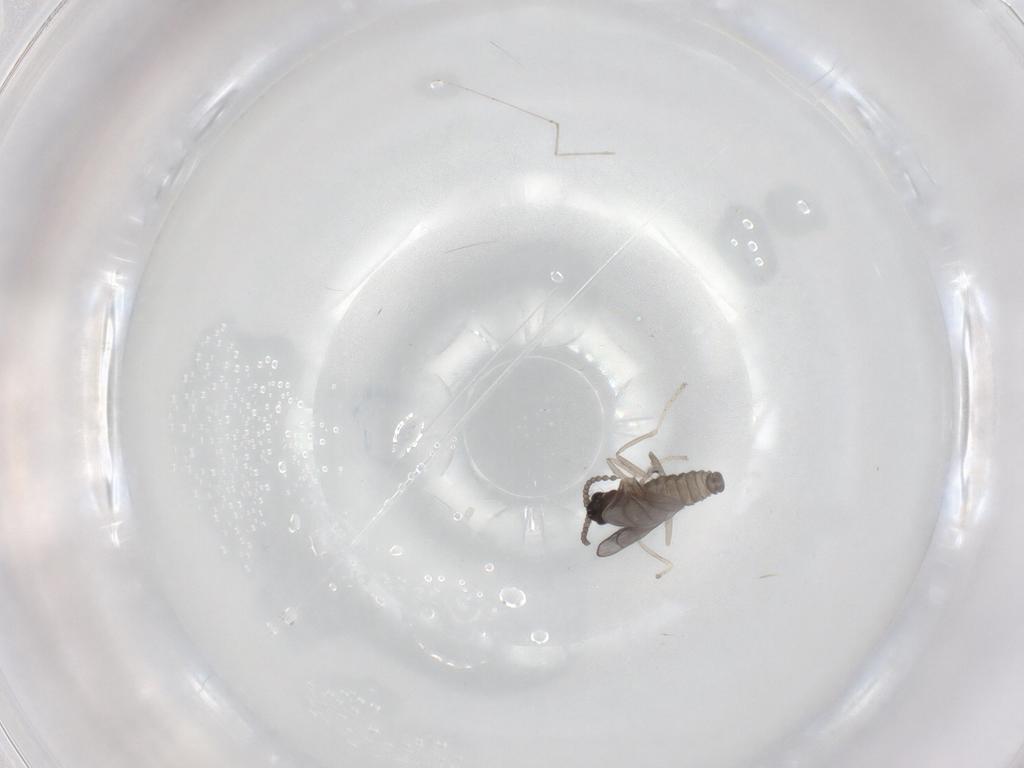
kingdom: Animalia
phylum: Arthropoda
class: Insecta
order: Diptera
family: Cecidomyiidae
